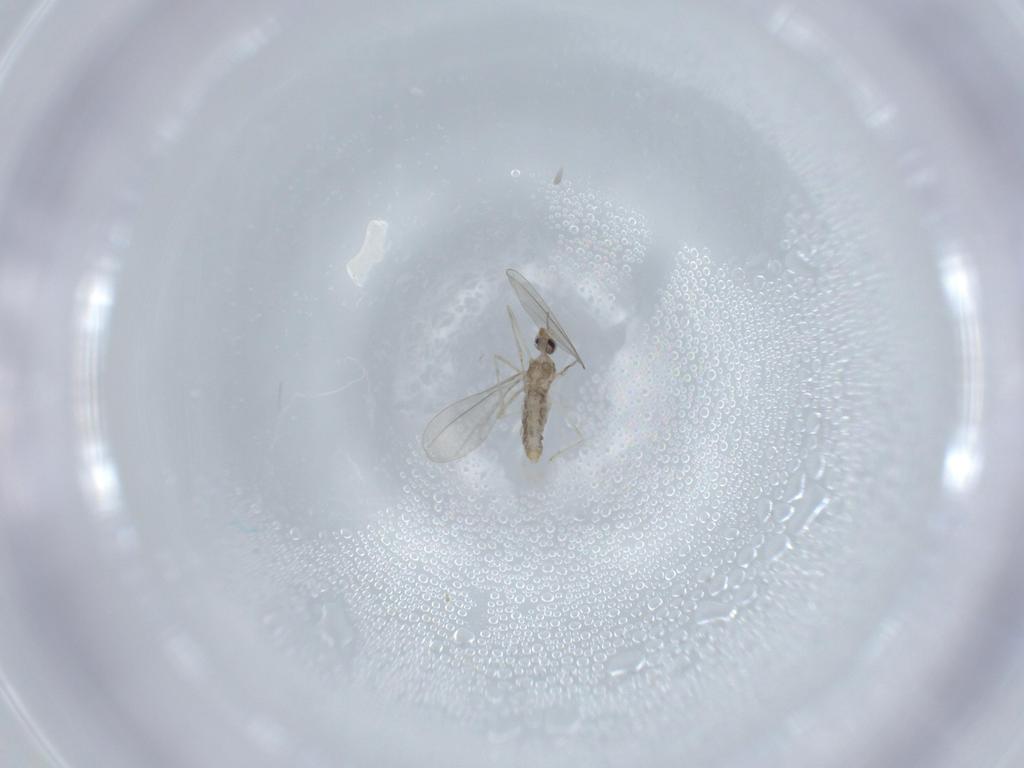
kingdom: Animalia
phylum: Arthropoda
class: Insecta
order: Diptera
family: Cecidomyiidae
